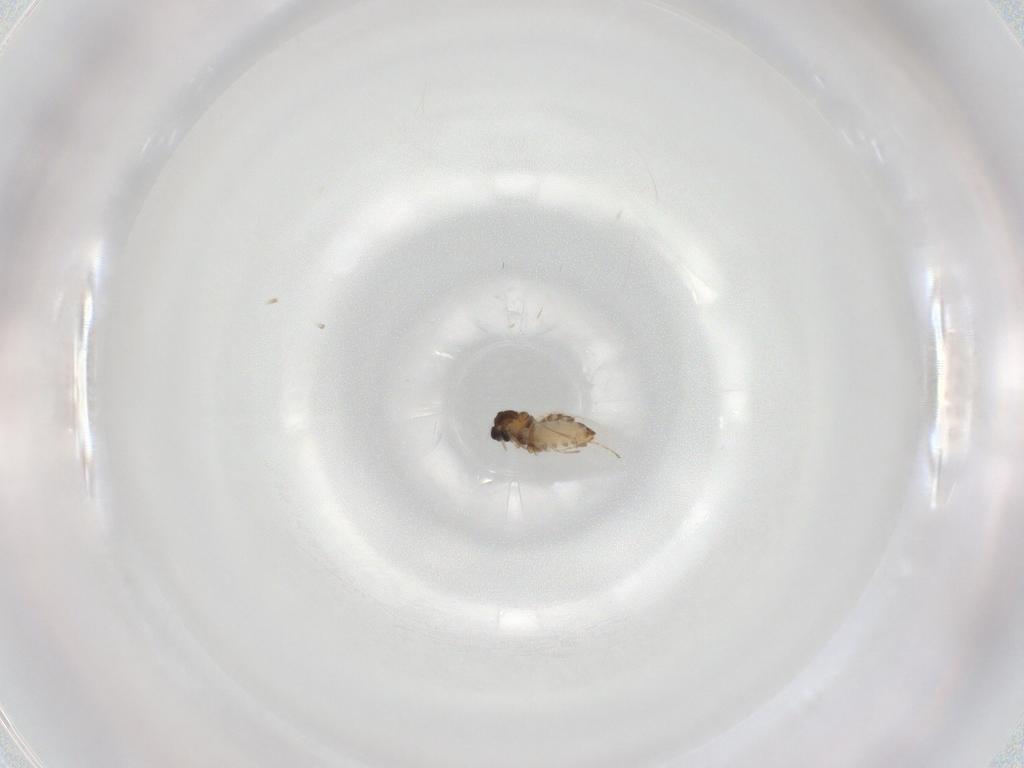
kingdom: Animalia
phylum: Arthropoda
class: Insecta
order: Diptera
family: Cecidomyiidae
